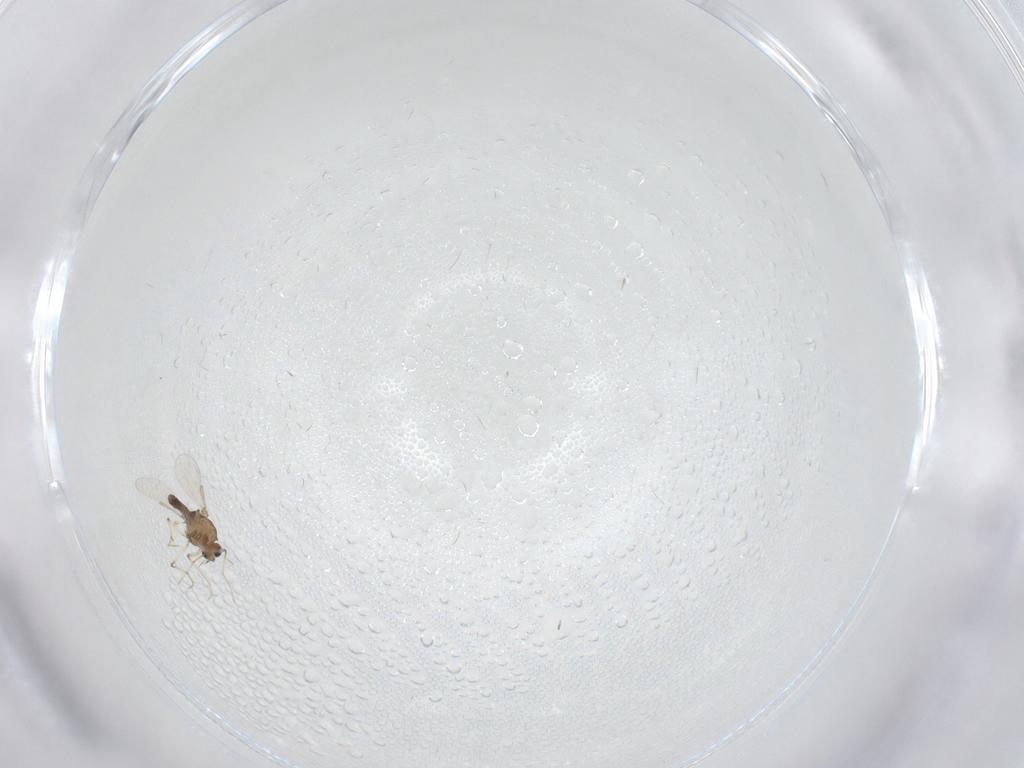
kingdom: Animalia
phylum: Arthropoda
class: Insecta
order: Diptera
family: Chironomidae
